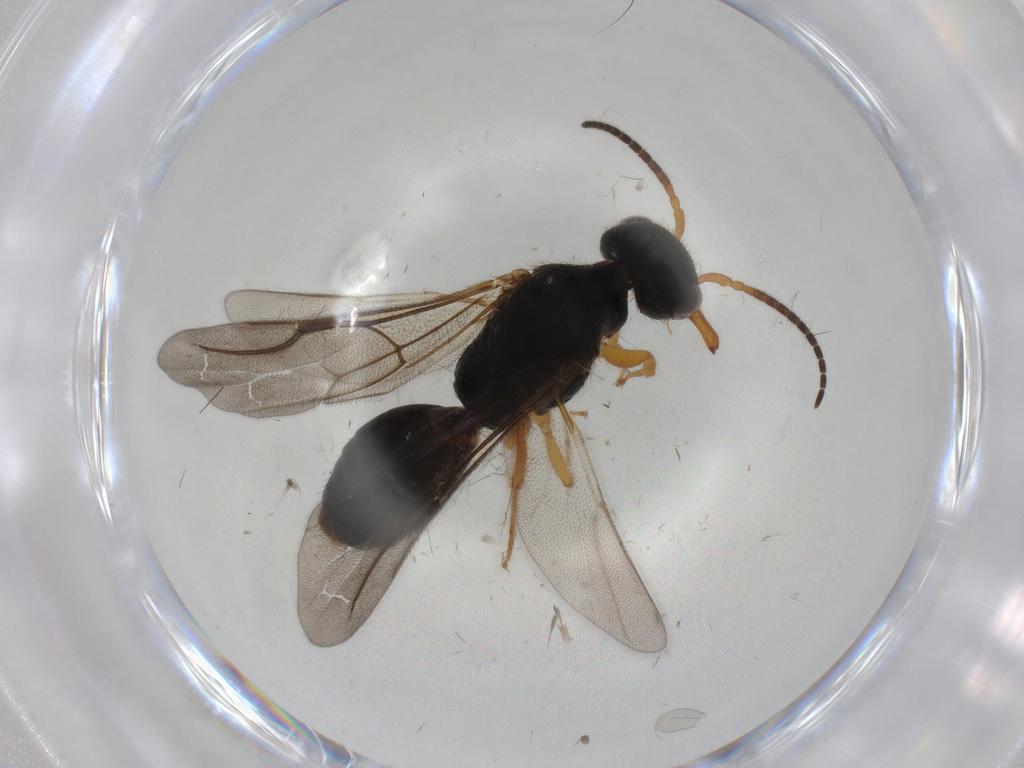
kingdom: Animalia
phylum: Arthropoda
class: Insecta
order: Hymenoptera
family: Bethylidae
